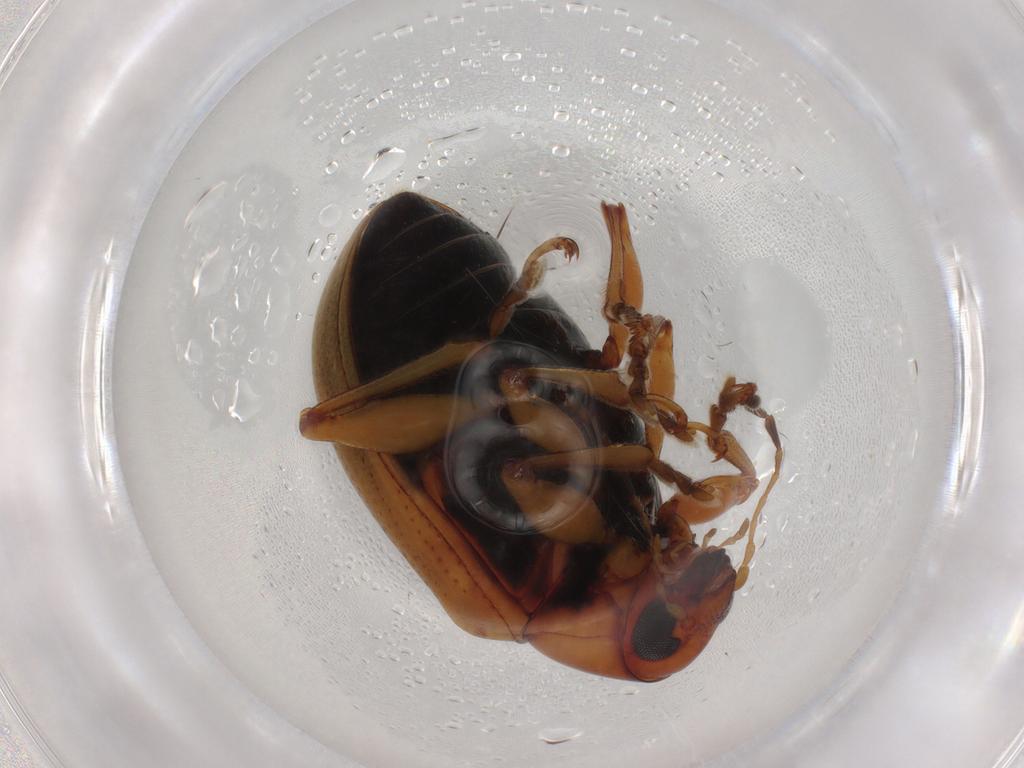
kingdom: Animalia
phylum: Arthropoda
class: Insecta
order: Coleoptera
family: Chrysomelidae
